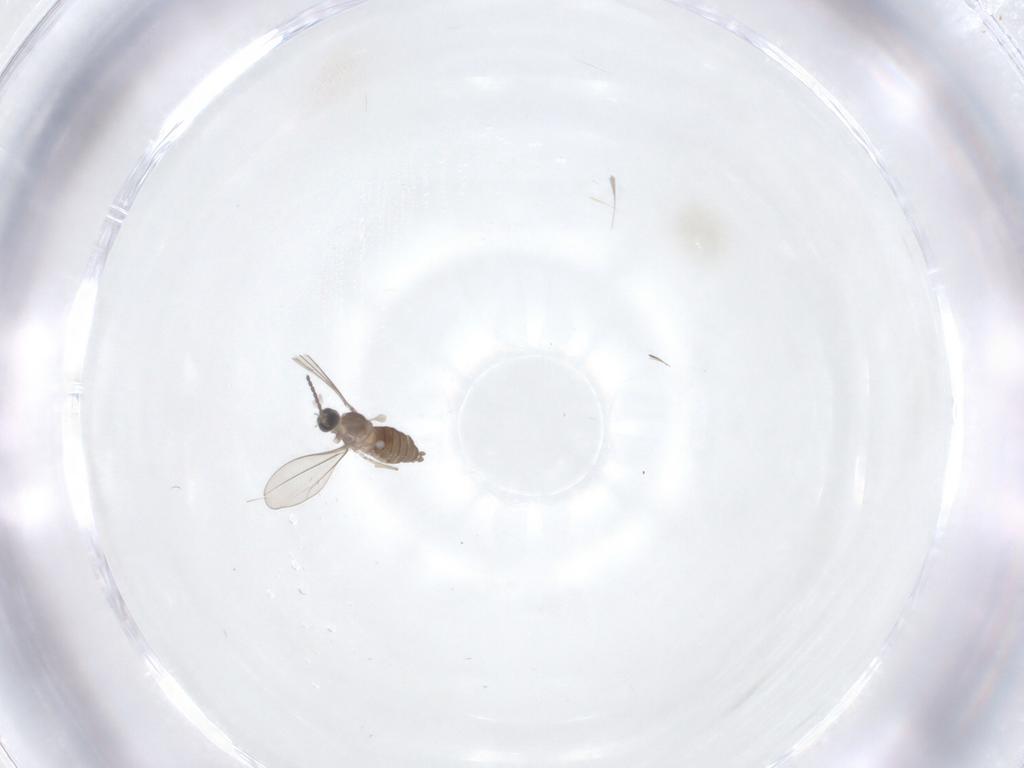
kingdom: Animalia
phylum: Arthropoda
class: Insecta
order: Diptera
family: Cecidomyiidae
